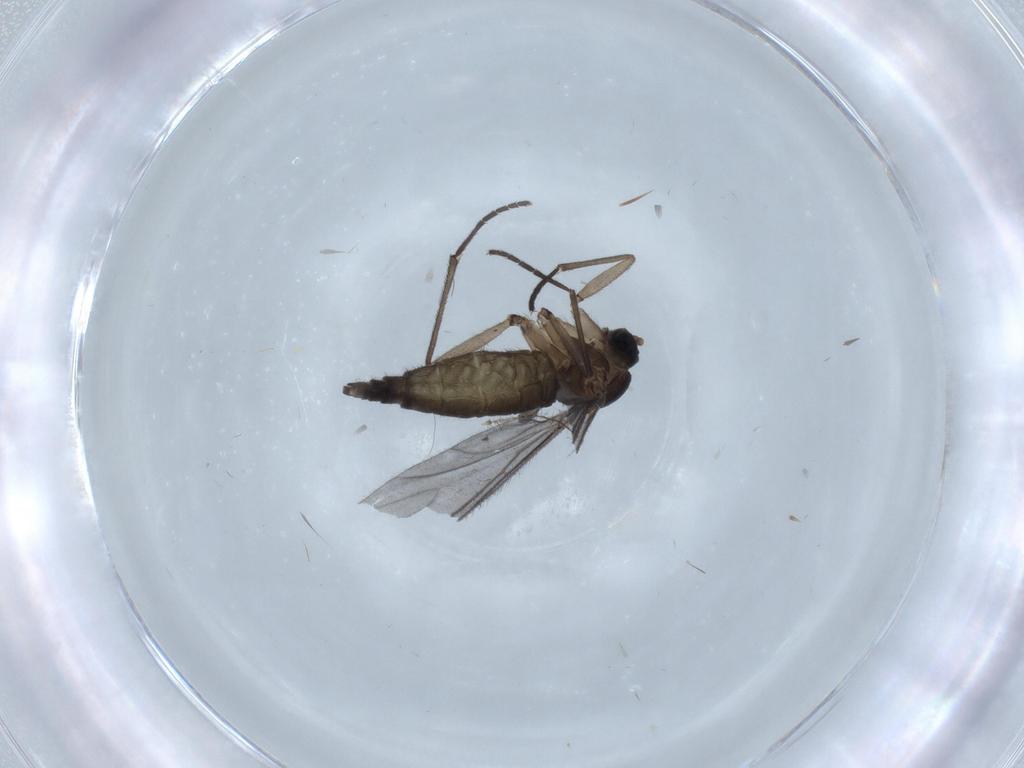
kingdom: Animalia
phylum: Arthropoda
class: Insecta
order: Diptera
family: Sciaridae
